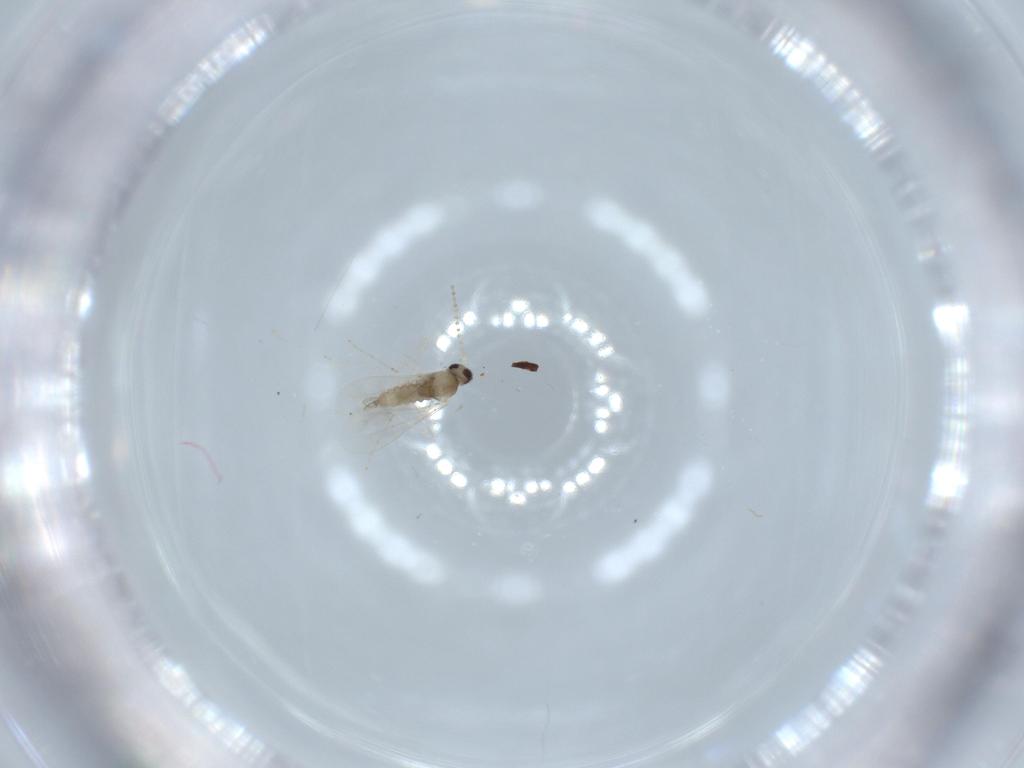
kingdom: Animalia
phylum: Arthropoda
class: Insecta
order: Diptera
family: Cecidomyiidae
